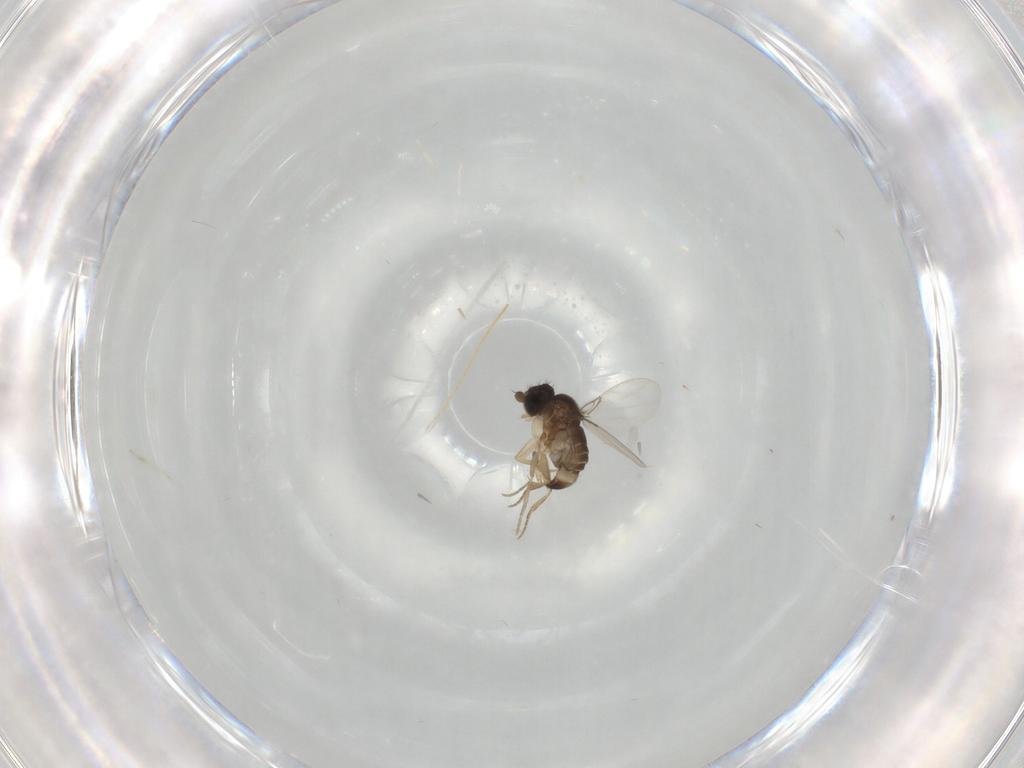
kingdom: Animalia
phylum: Arthropoda
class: Insecta
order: Diptera
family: Phoridae
